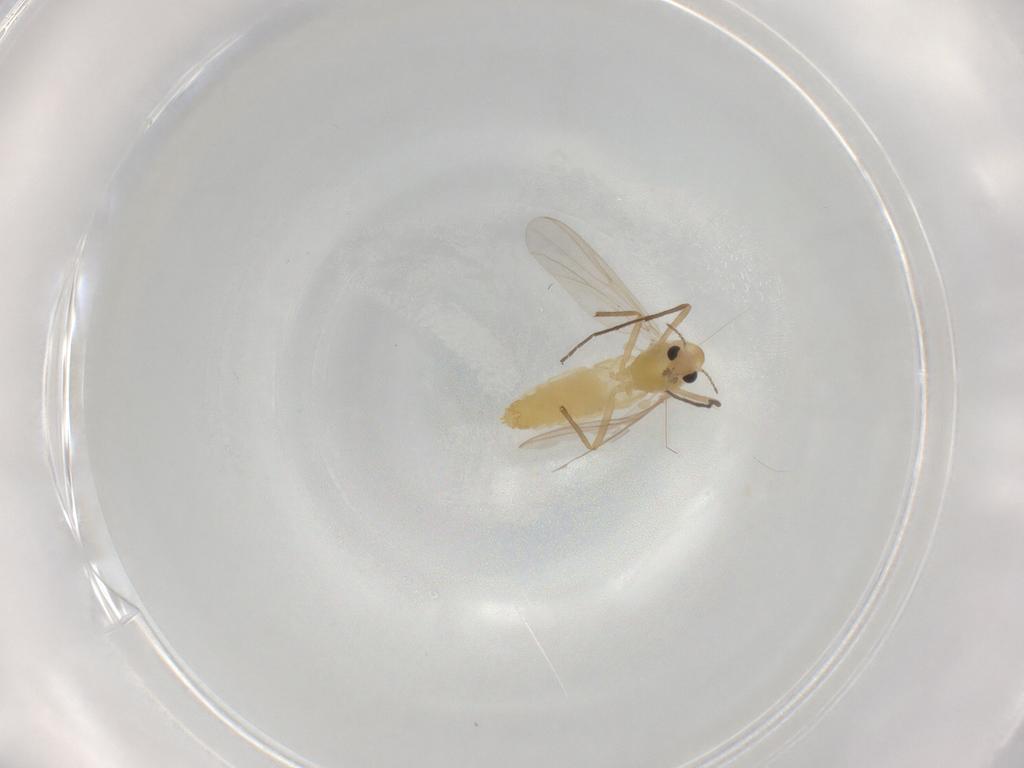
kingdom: Animalia
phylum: Arthropoda
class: Insecta
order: Diptera
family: Chironomidae
